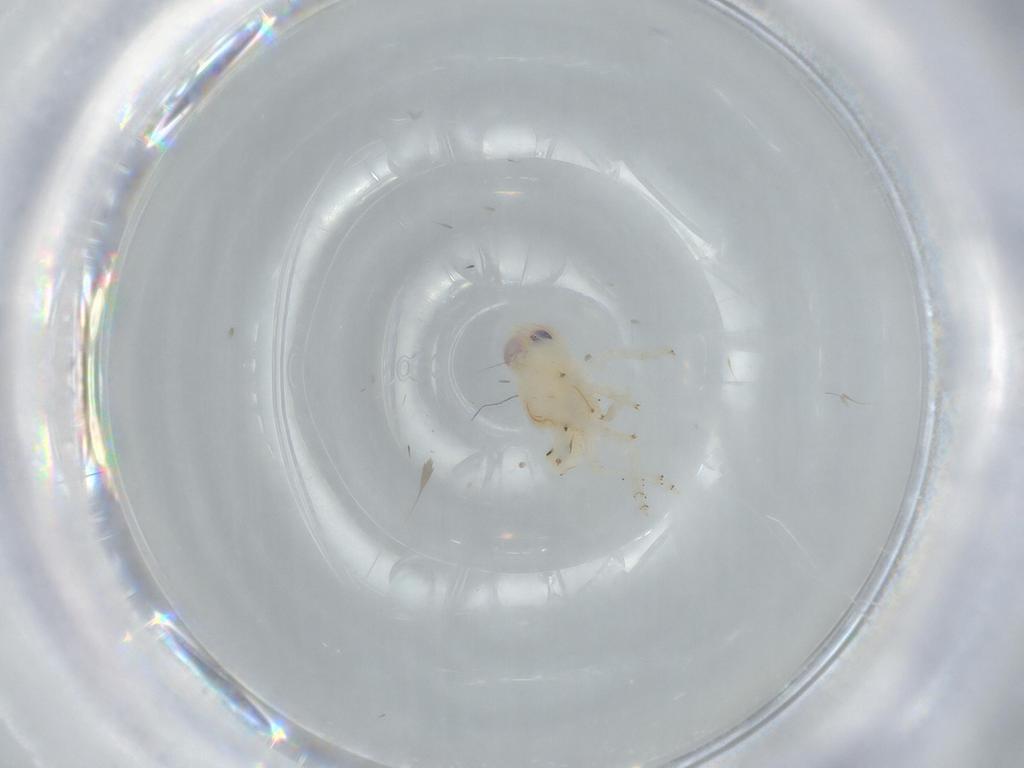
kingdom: Animalia
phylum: Arthropoda
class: Insecta
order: Hemiptera
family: Nogodinidae
